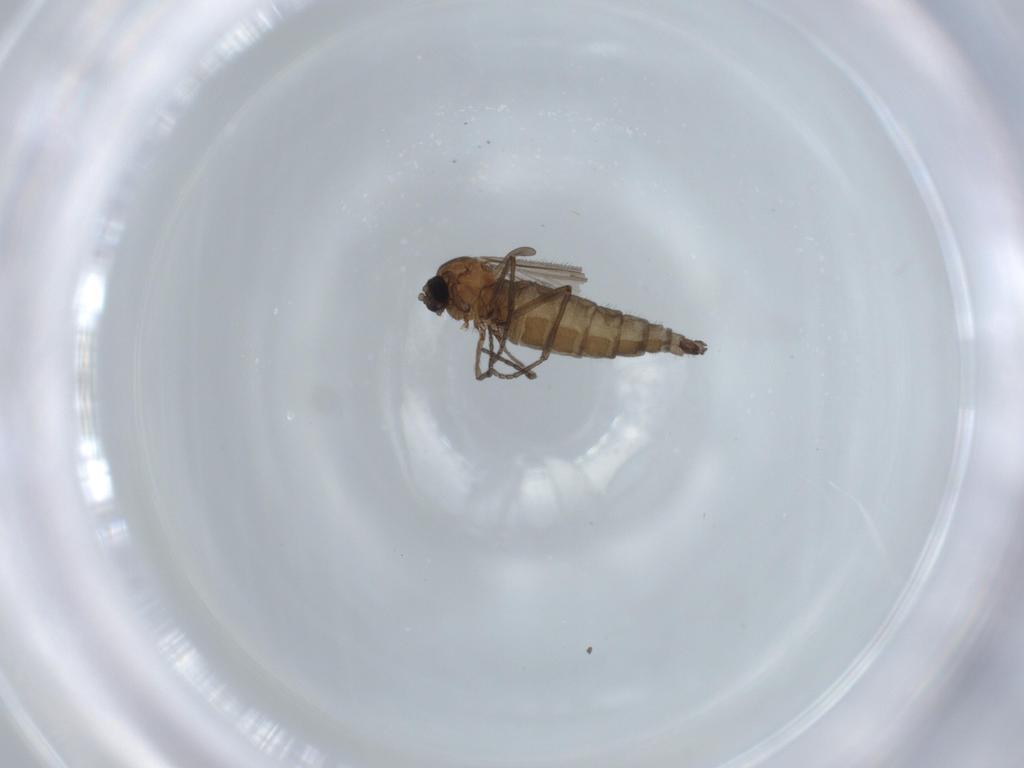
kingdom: Animalia
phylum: Arthropoda
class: Insecta
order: Diptera
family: Sciaridae
